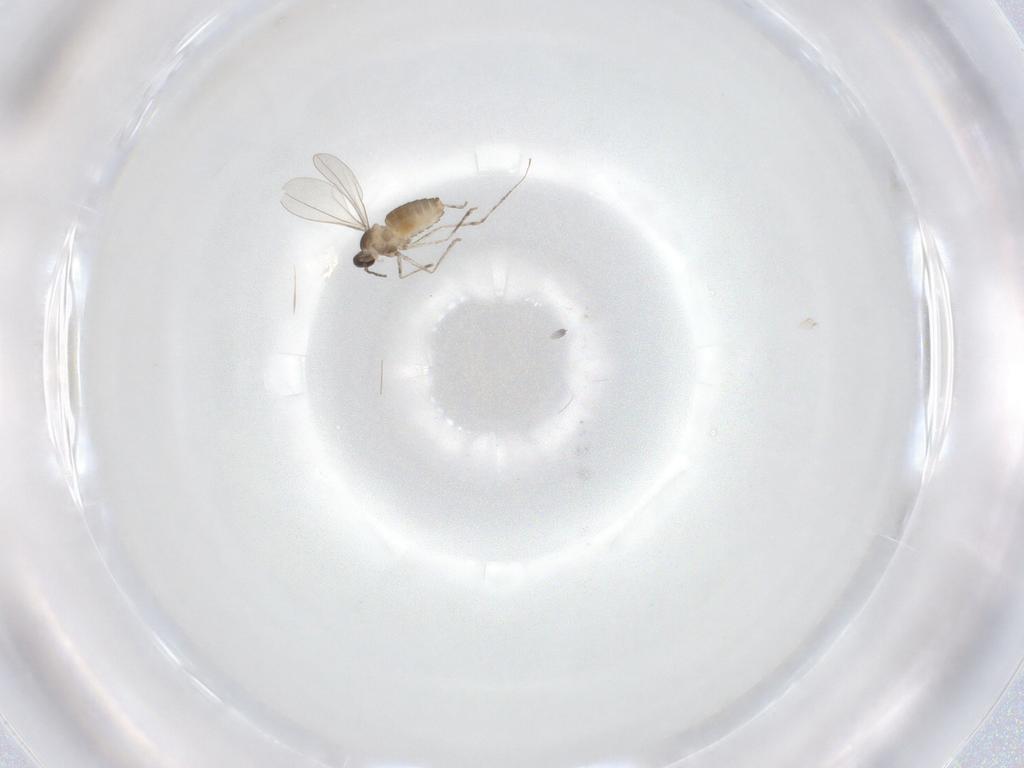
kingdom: Animalia
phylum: Arthropoda
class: Insecta
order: Diptera
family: Cecidomyiidae
